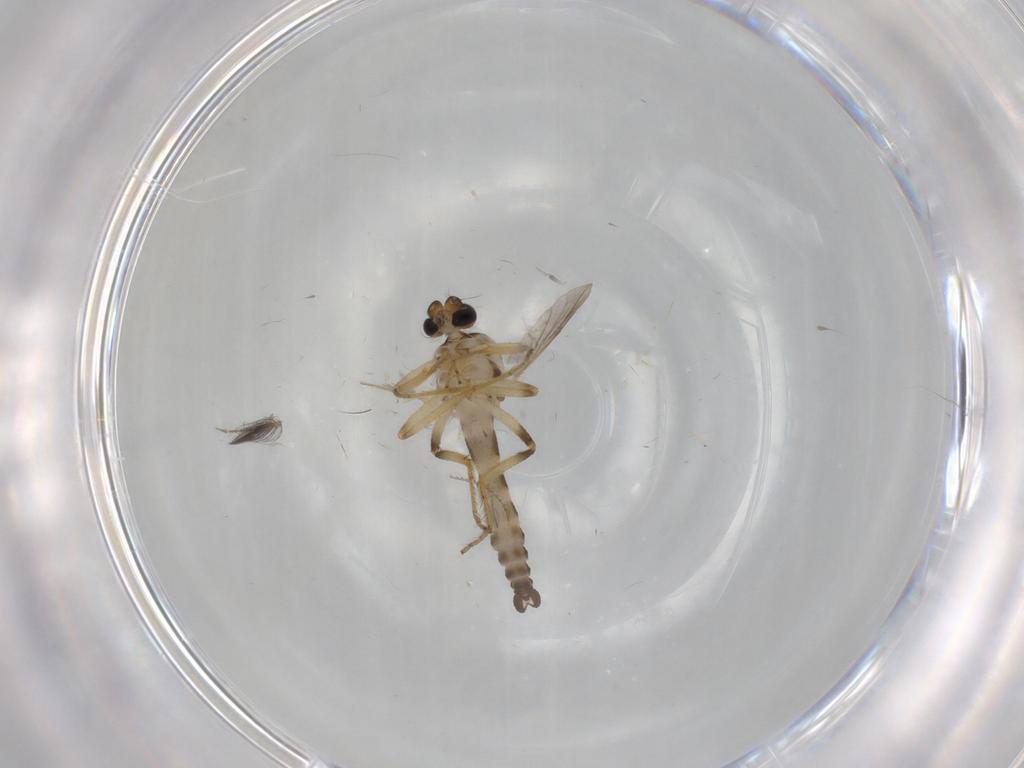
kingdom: Animalia
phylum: Arthropoda
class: Insecta
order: Diptera
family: Ceratopogonidae
